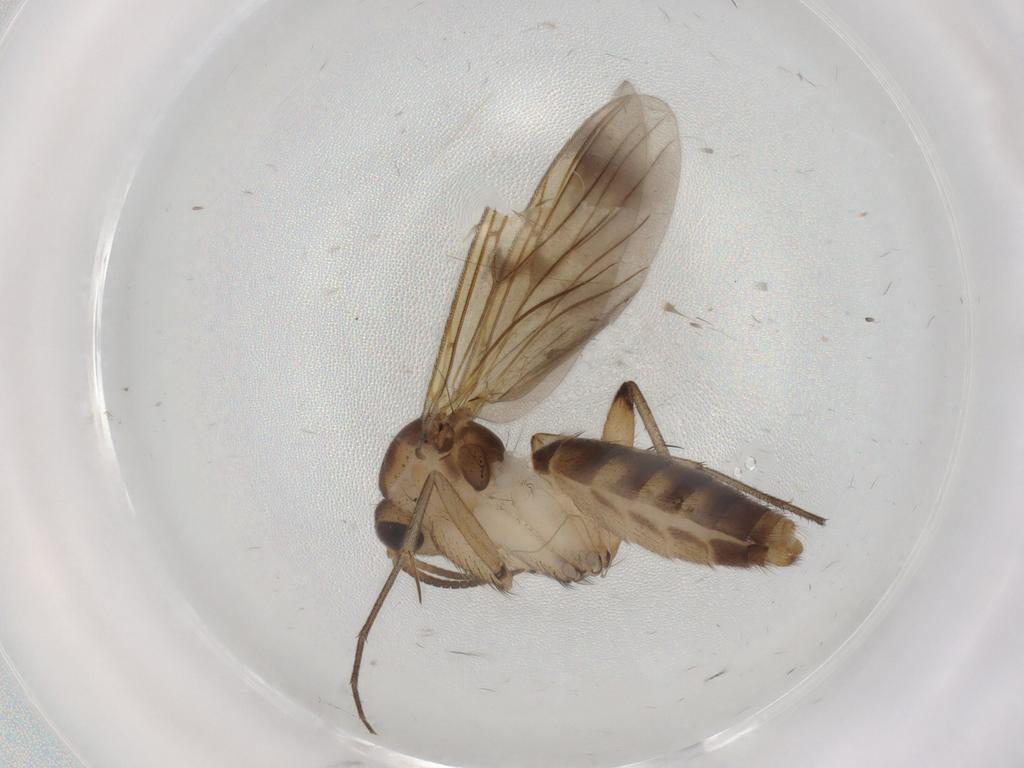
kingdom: Animalia
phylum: Arthropoda
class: Insecta
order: Diptera
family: Mycetophilidae
